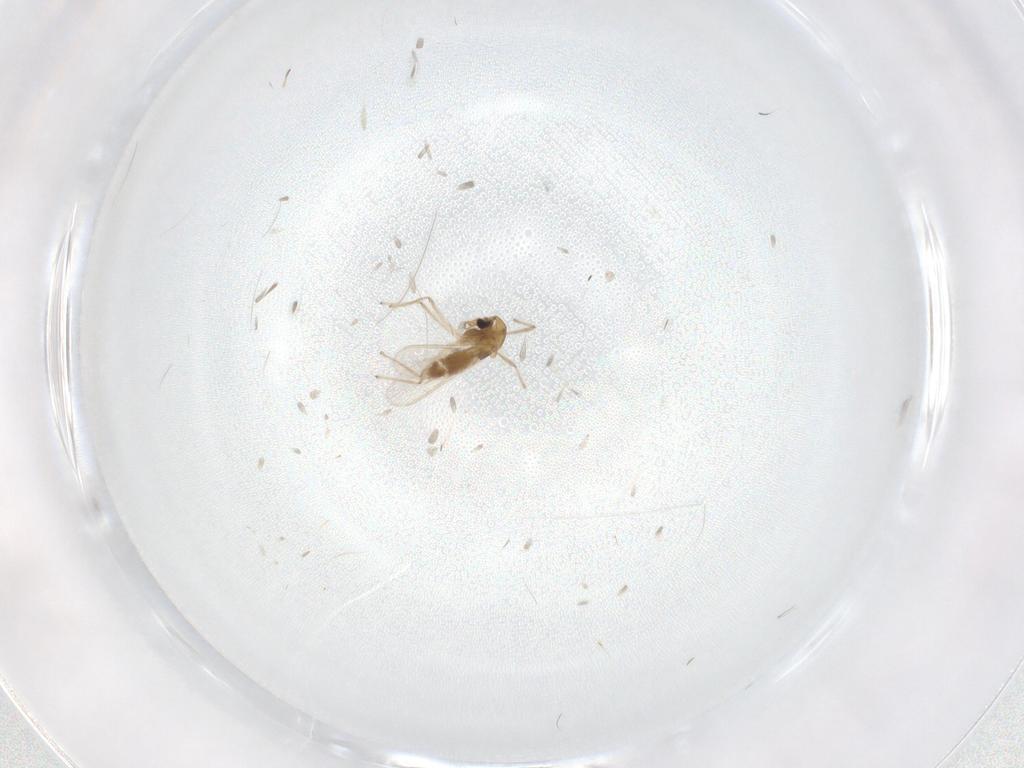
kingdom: Animalia
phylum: Arthropoda
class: Insecta
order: Diptera
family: Chironomidae
